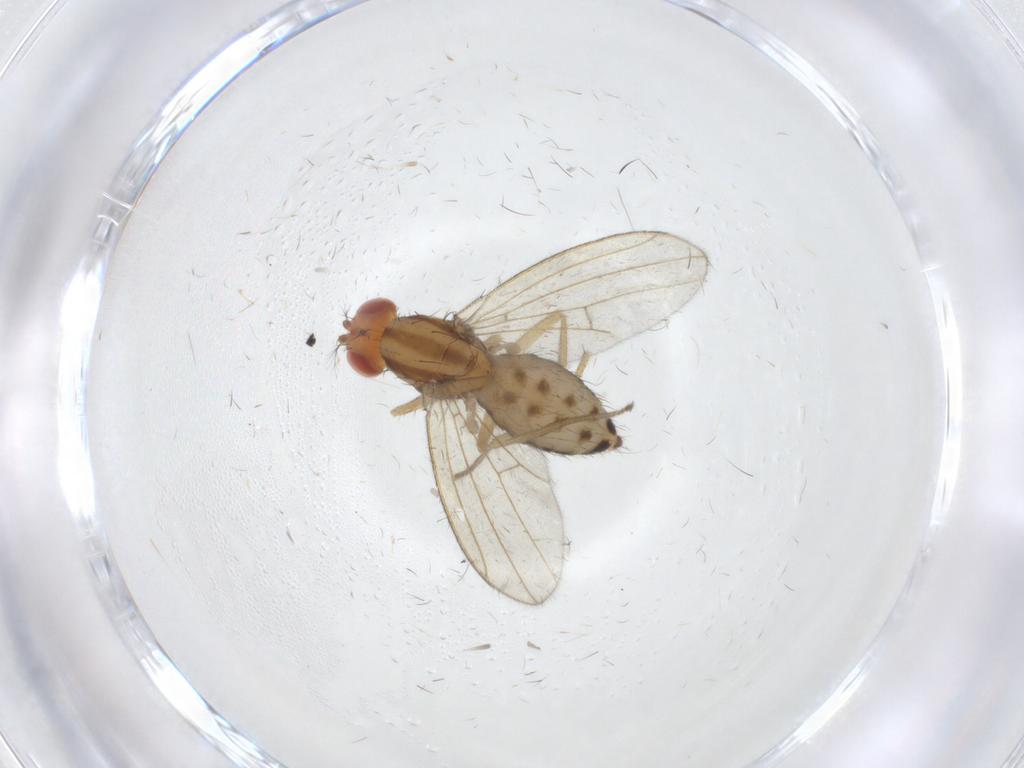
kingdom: Animalia
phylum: Arthropoda
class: Insecta
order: Diptera
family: Drosophilidae
